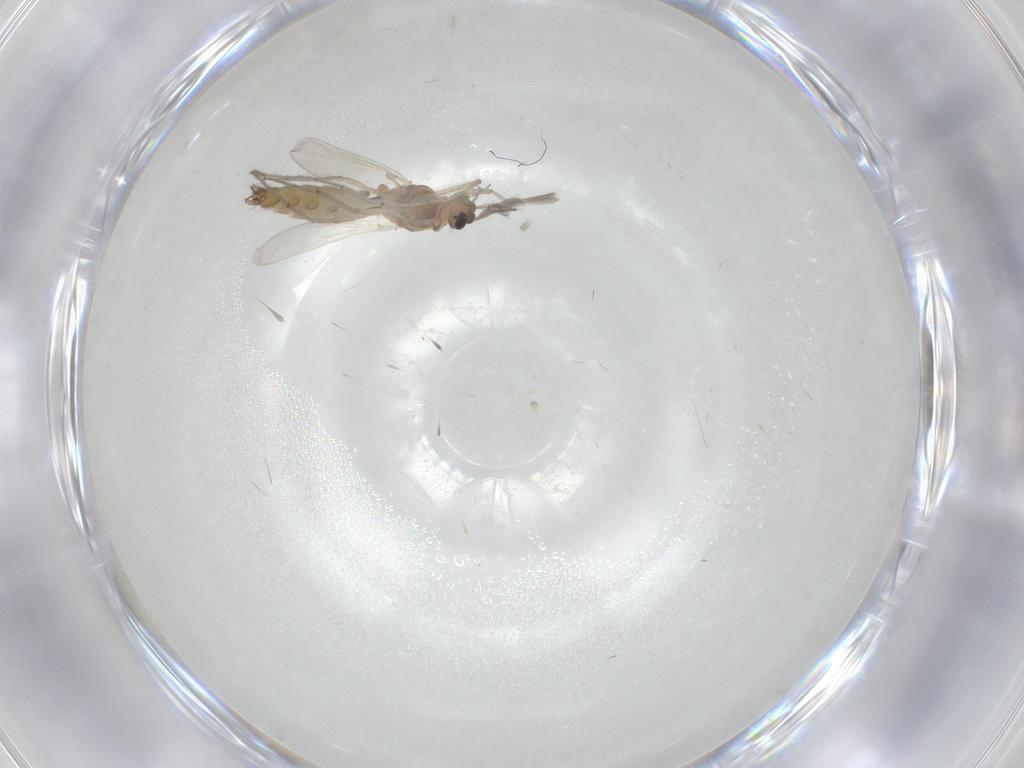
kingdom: Animalia
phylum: Arthropoda
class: Insecta
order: Diptera
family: Chironomidae
